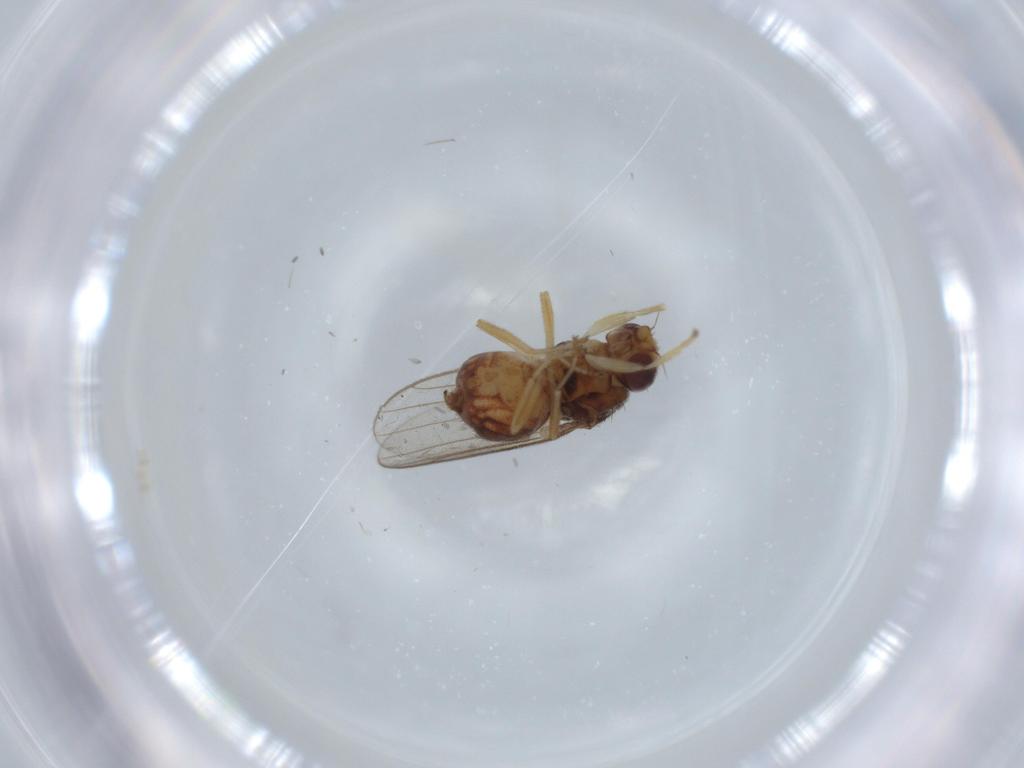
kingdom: Animalia
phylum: Arthropoda
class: Insecta
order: Diptera
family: Chloropidae
